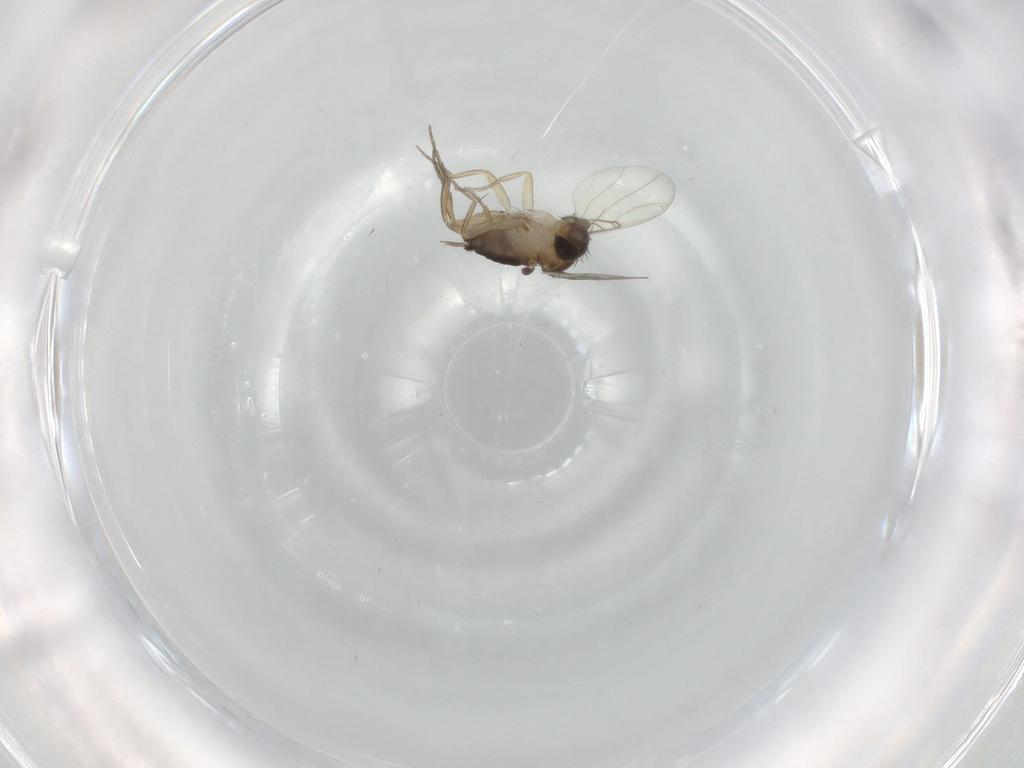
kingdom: Animalia
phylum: Arthropoda
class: Insecta
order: Diptera
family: Cecidomyiidae
